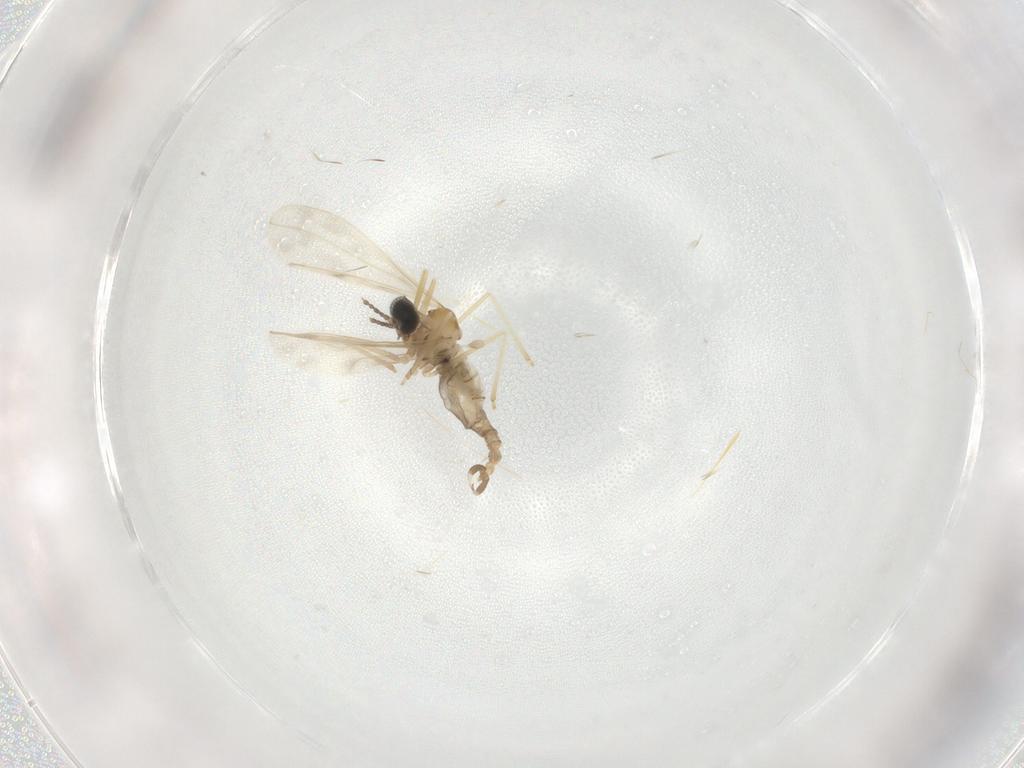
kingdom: Animalia
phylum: Arthropoda
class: Insecta
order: Diptera
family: Cecidomyiidae
